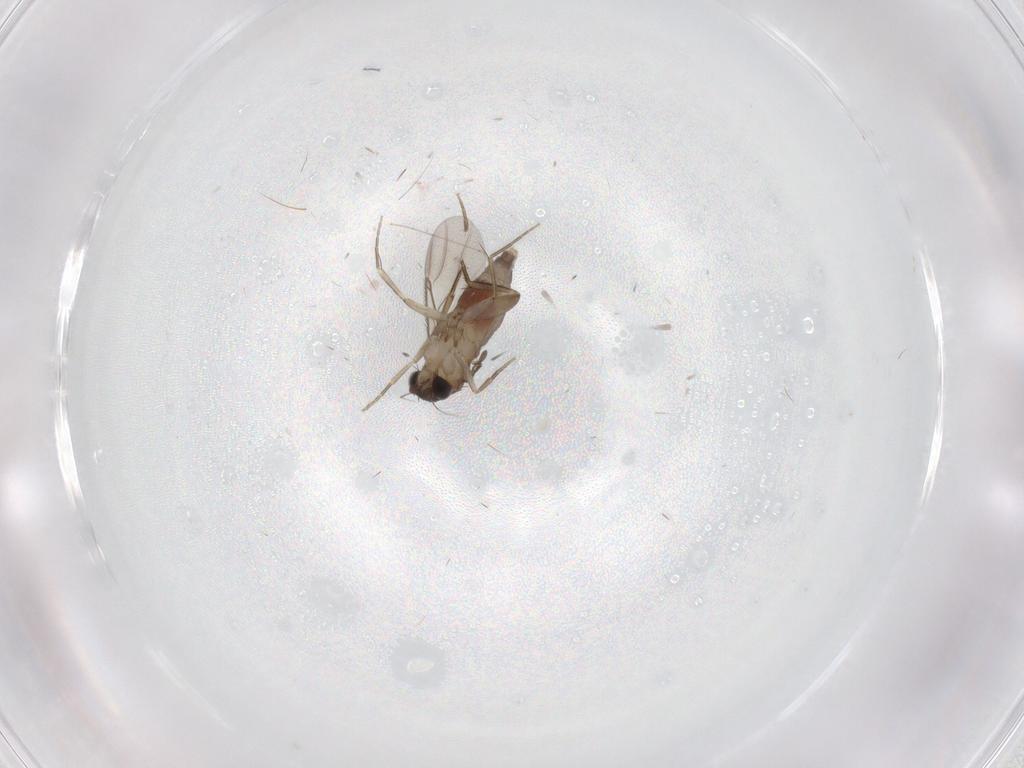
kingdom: Animalia
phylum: Arthropoda
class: Insecta
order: Diptera
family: Phoridae
